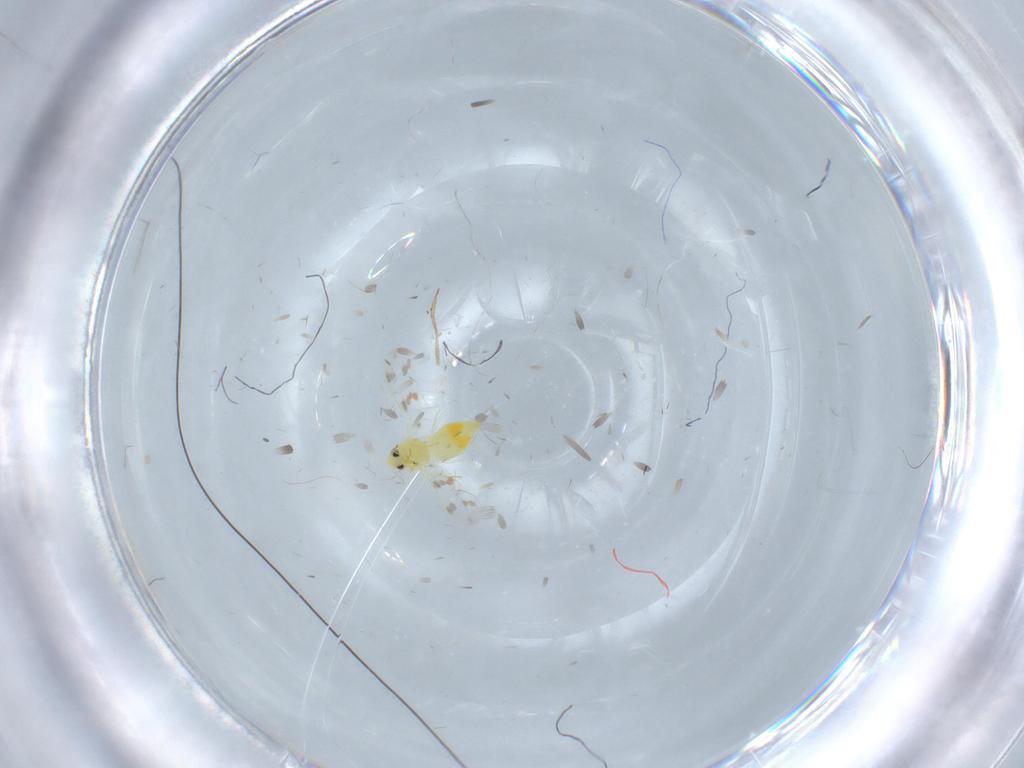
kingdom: Animalia
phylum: Arthropoda
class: Insecta
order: Hemiptera
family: Aleyrodidae
